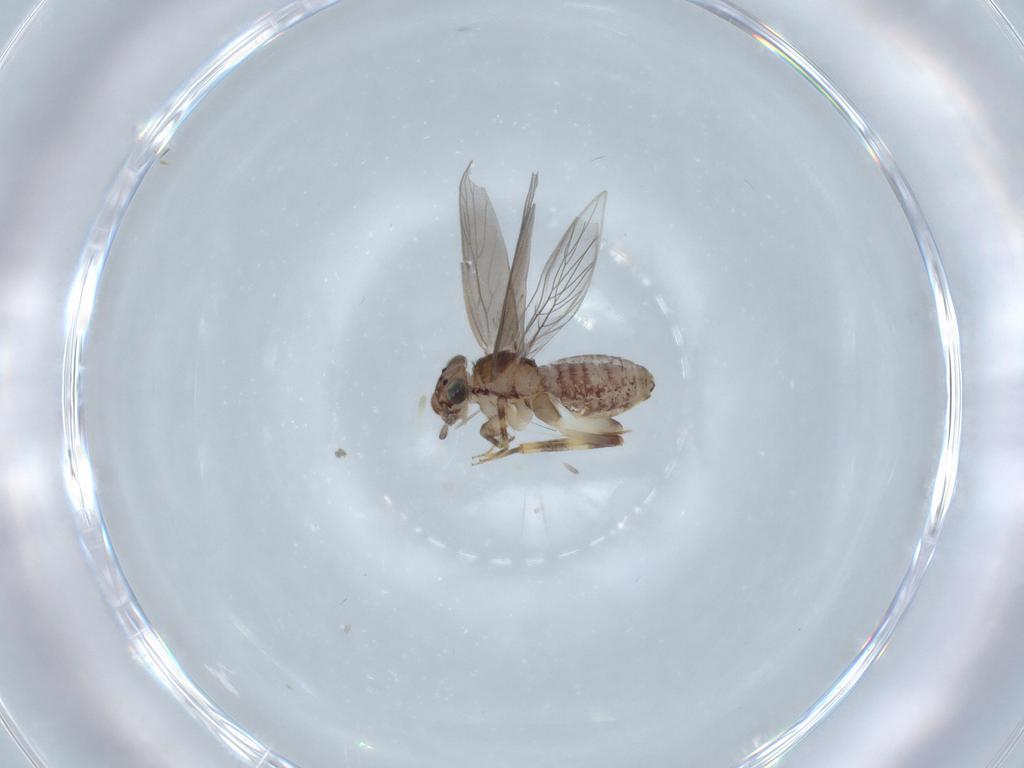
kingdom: Animalia
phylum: Arthropoda
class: Insecta
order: Psocodea
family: Lepidopsocidae
